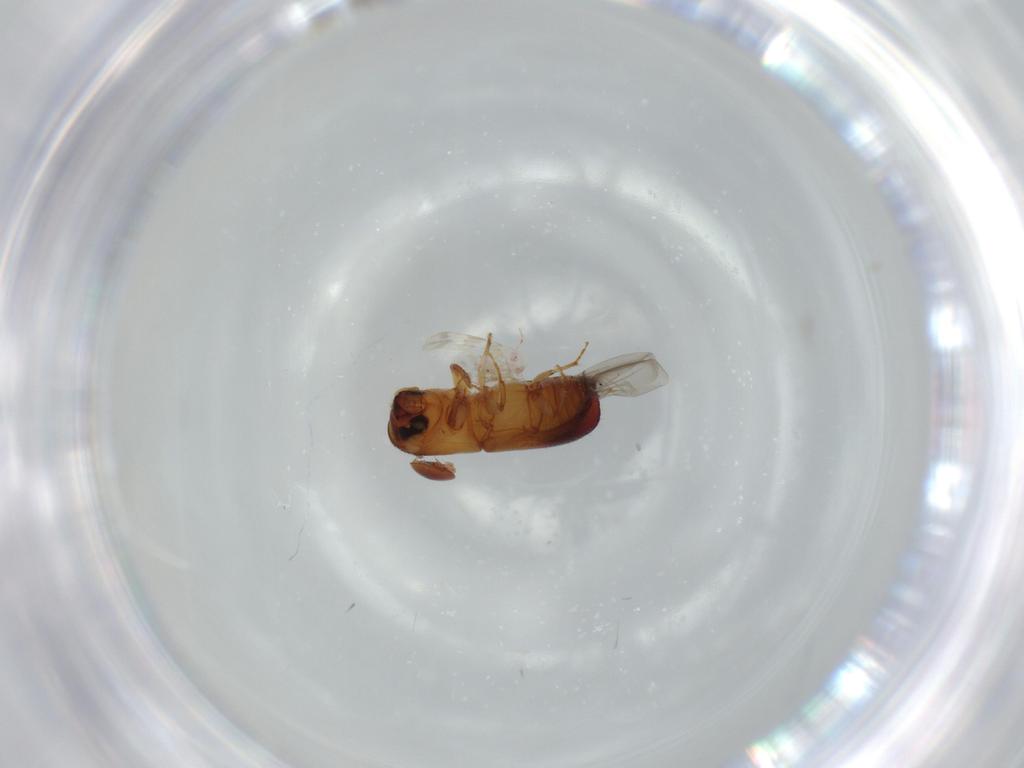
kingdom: Animalia
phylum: Arthropoda
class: Insecta
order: Coleoptera
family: Curculionidae
